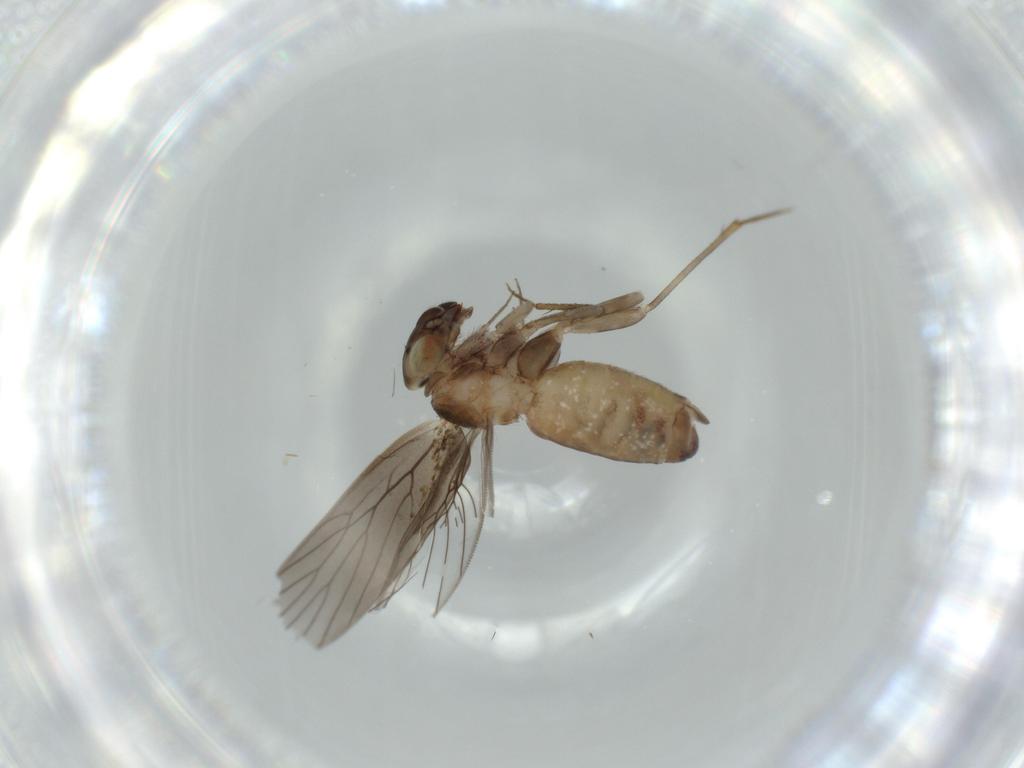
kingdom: Animalia
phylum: Arthropoda
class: Insecta
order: Psocodea
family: Lepidopsocidae
